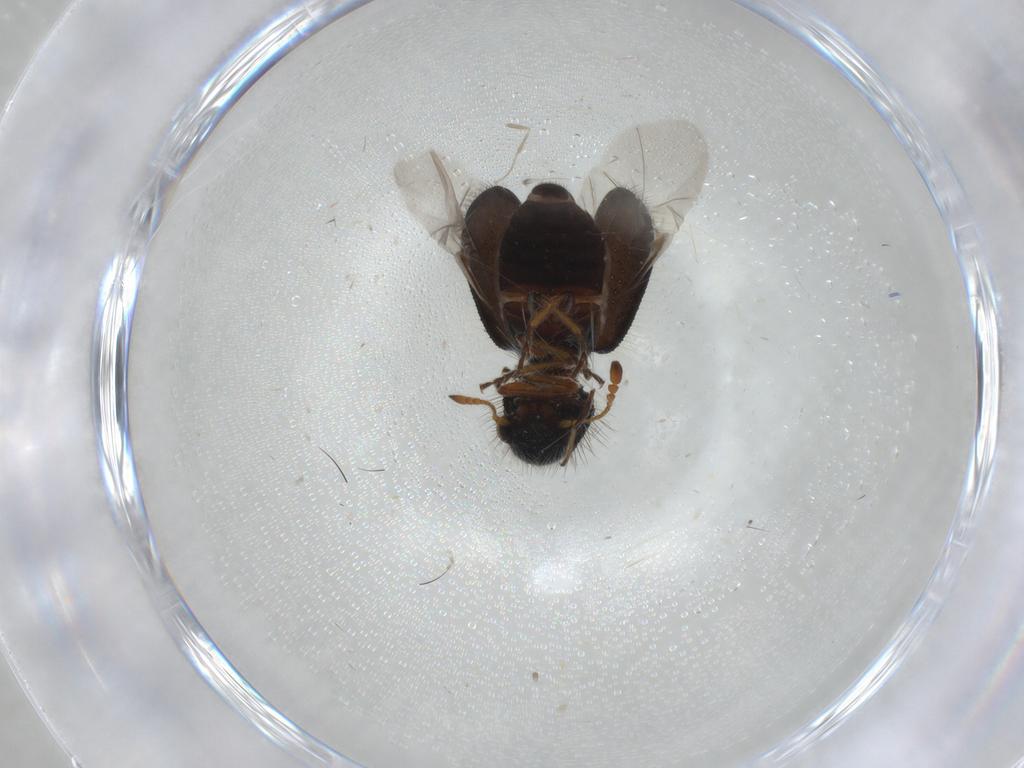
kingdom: Animalia
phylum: Arthropoda
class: Insecta
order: Coleoptera
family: Cleridae
